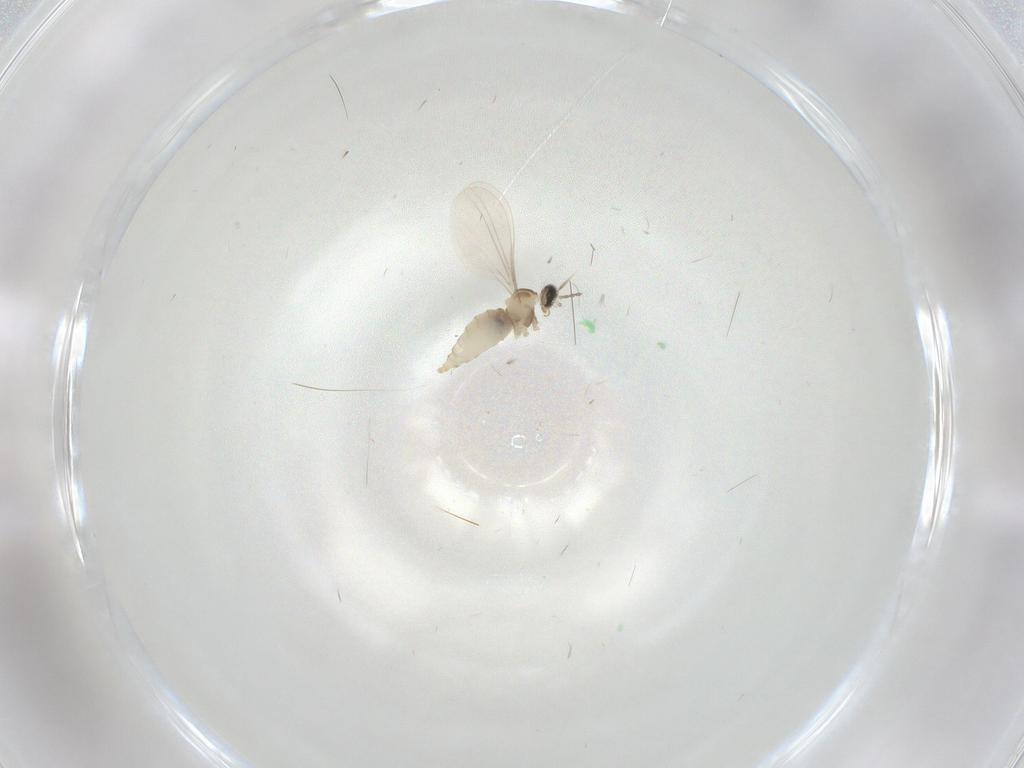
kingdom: Animalia
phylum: Arthropoda
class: Insecta
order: Diptera
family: Cecidomyiidae
